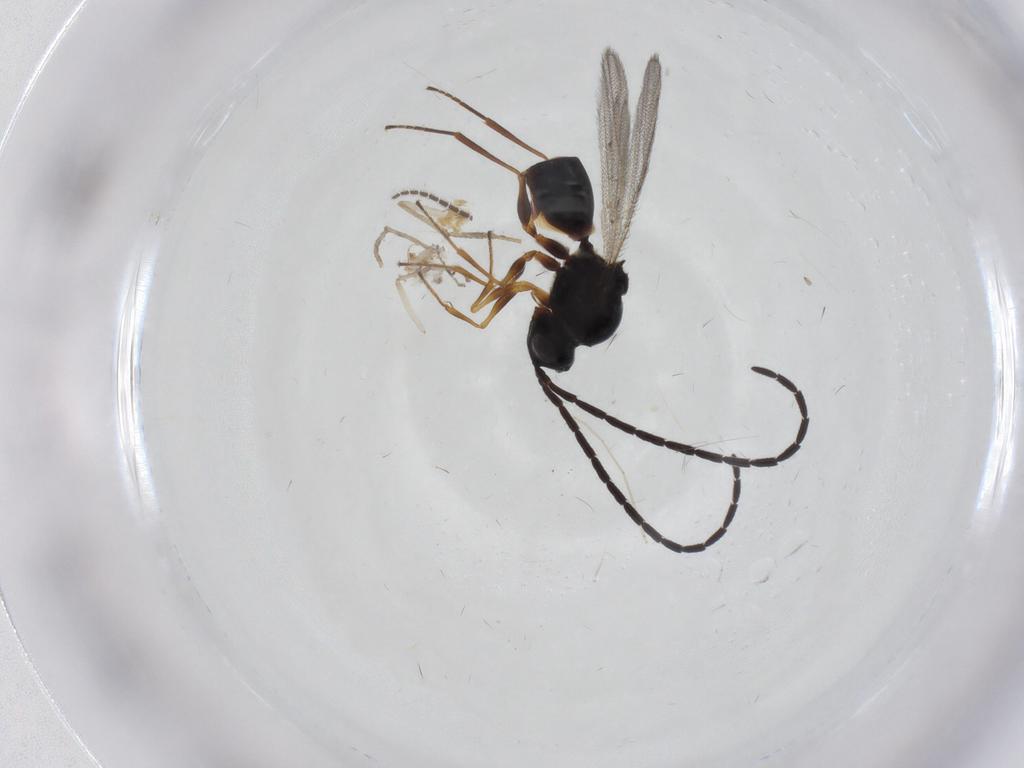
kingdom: Animalia
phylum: Arthropoda
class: Insecta
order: Hymenoptera
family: Figitidae
